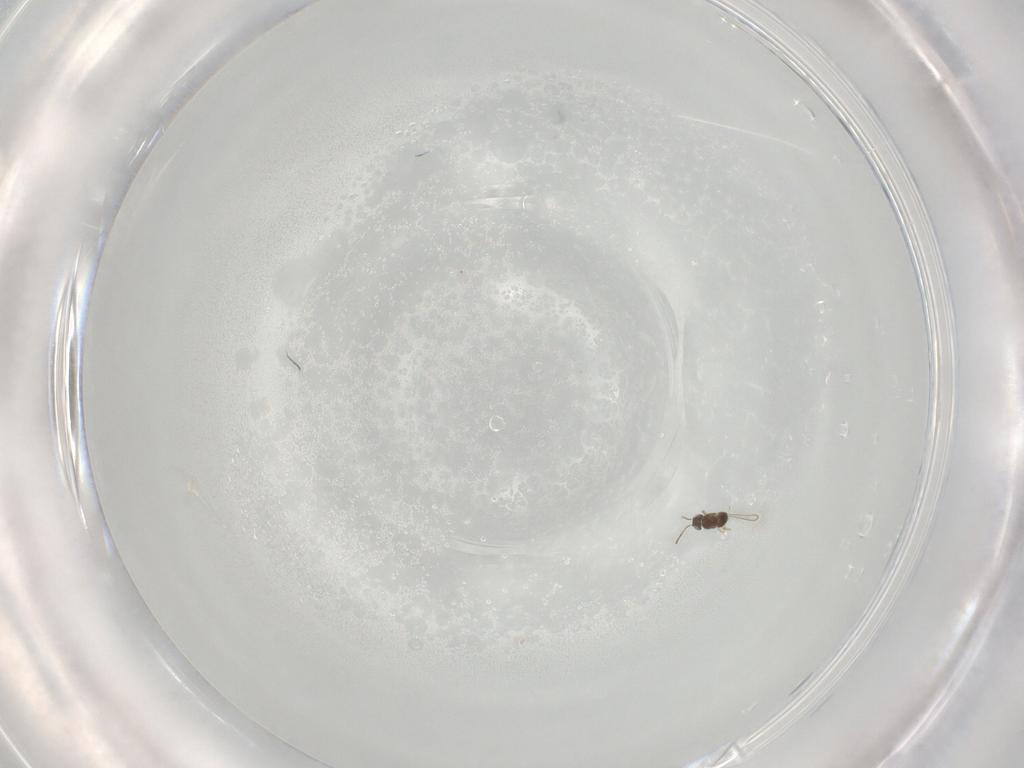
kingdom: Animalia
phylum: Arthropoda
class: Insecta
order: Hymenoptera
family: Ichneumonidae
